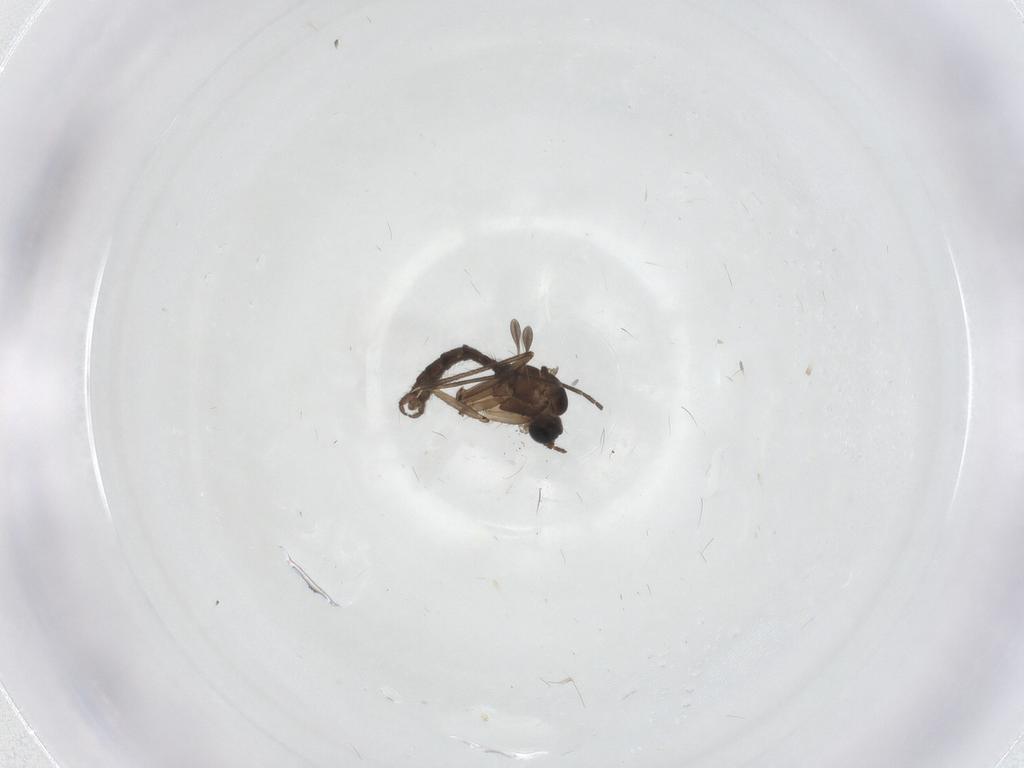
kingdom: Animalia
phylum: Arthropoda
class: Insecta
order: Diptera
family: Sciaridae
